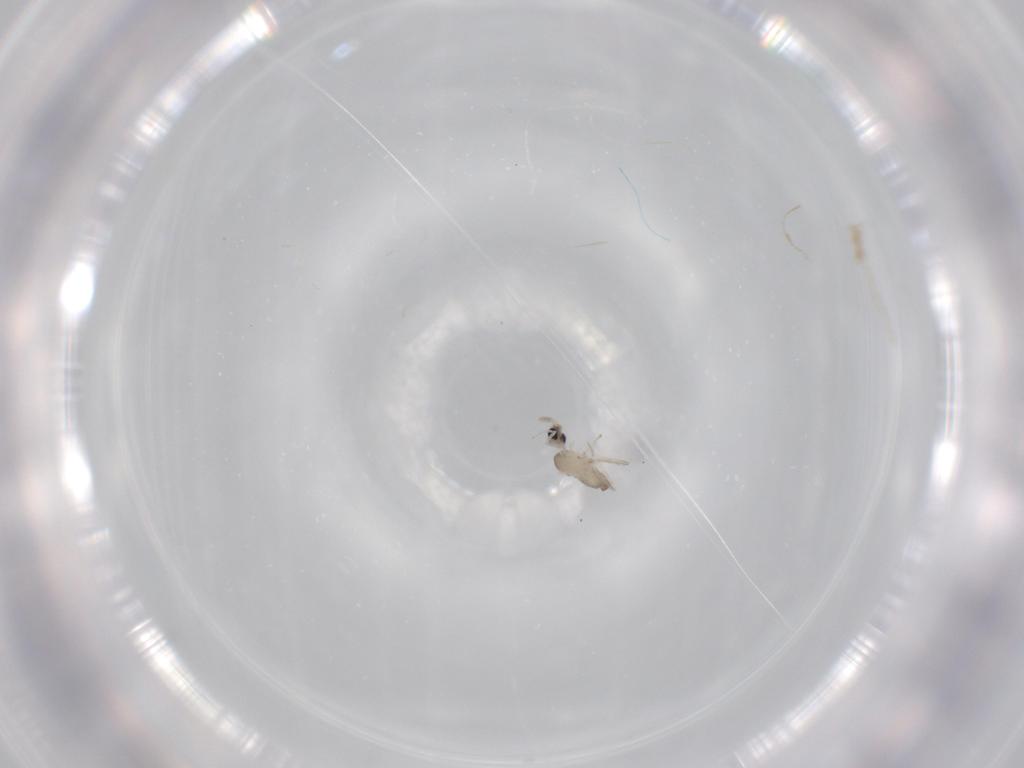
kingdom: Animalia
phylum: Arthropoda
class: Insecta
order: Diptera
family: Cecidomyiidae
